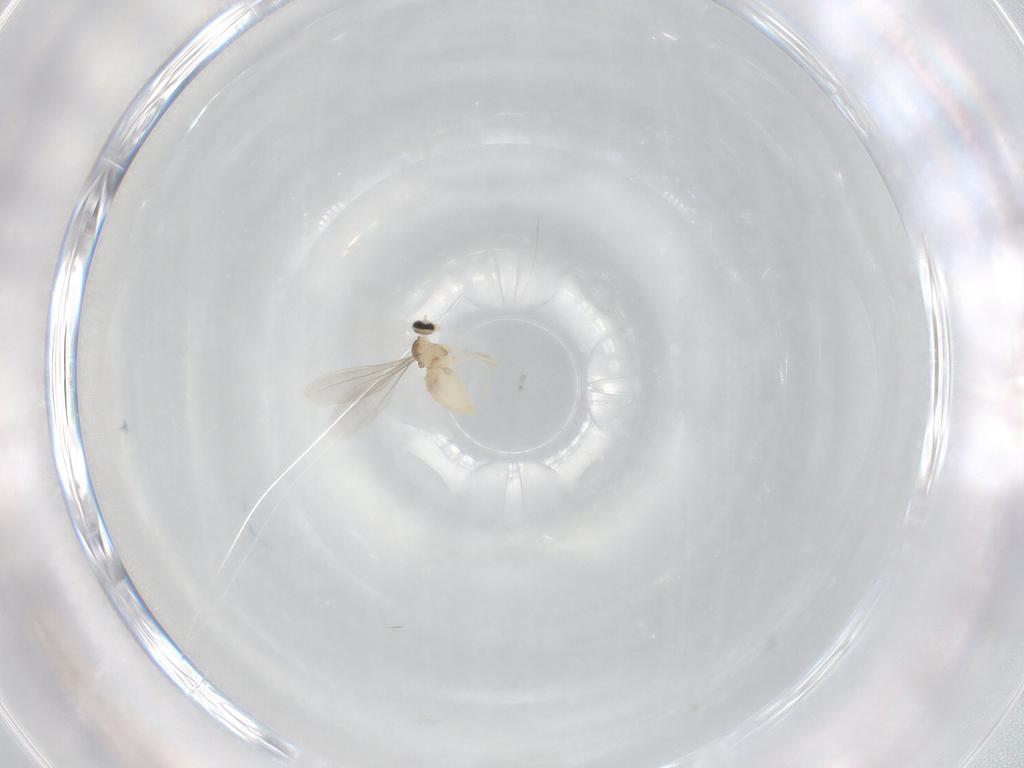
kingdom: Animalia
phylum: Arthropoda
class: Insecta
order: Diptera
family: Cecidomyiidae
